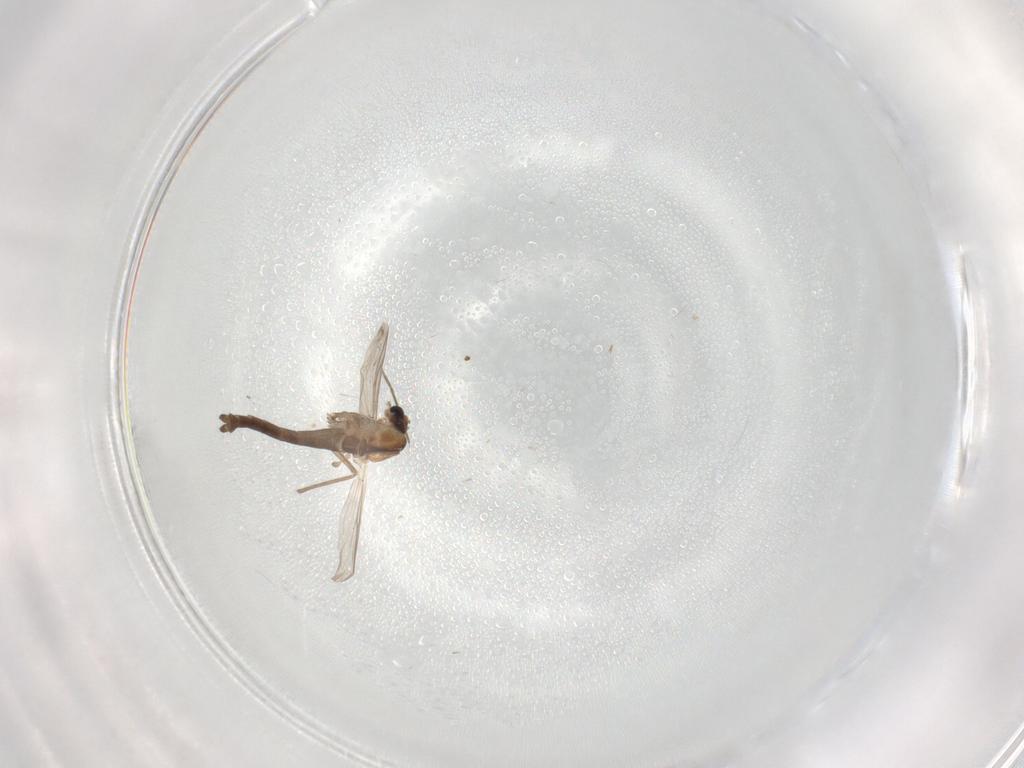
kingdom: Animalia
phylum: Arthropoda
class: Insecta
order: Diptera
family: Chironomidae
